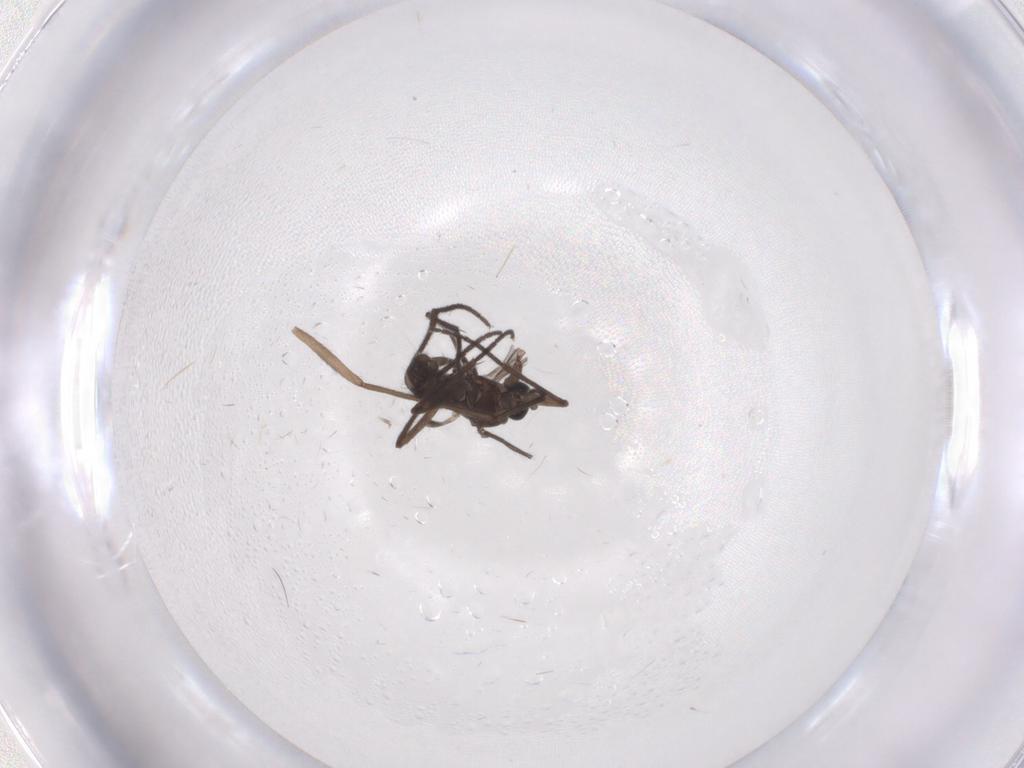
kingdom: Animalia
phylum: Arthropoda
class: Insecta
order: Diptera
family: Sciaridae
